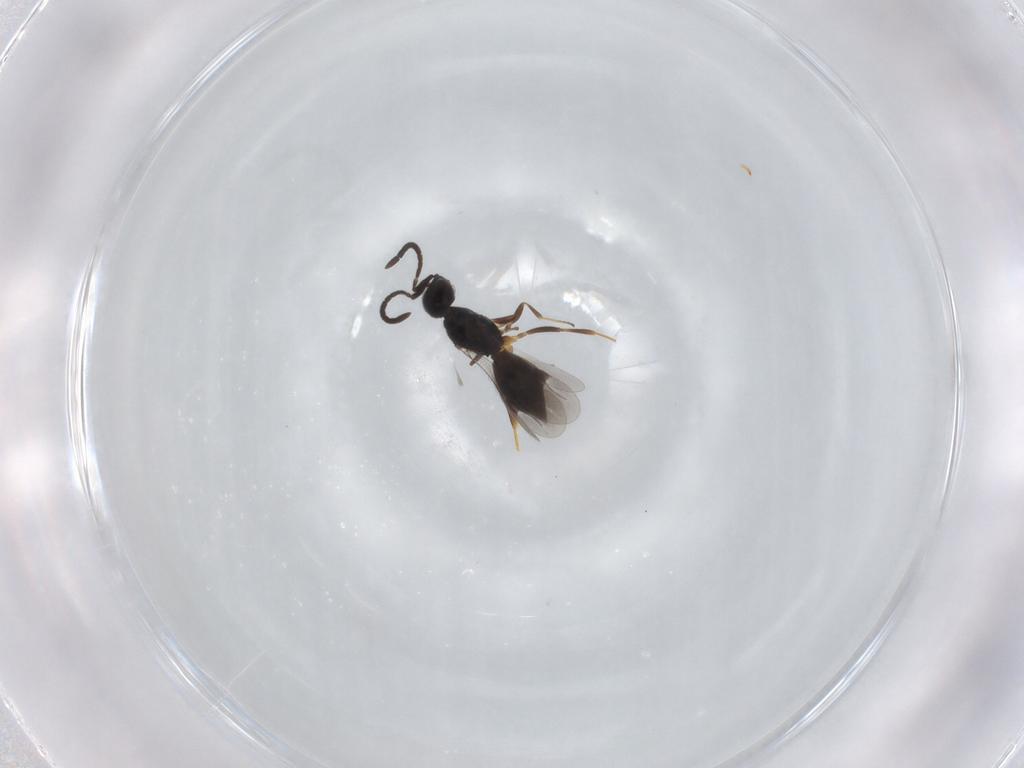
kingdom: Animalia
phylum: Arthropoda
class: Insecta
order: Hymenoptera
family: Megaspilidae
